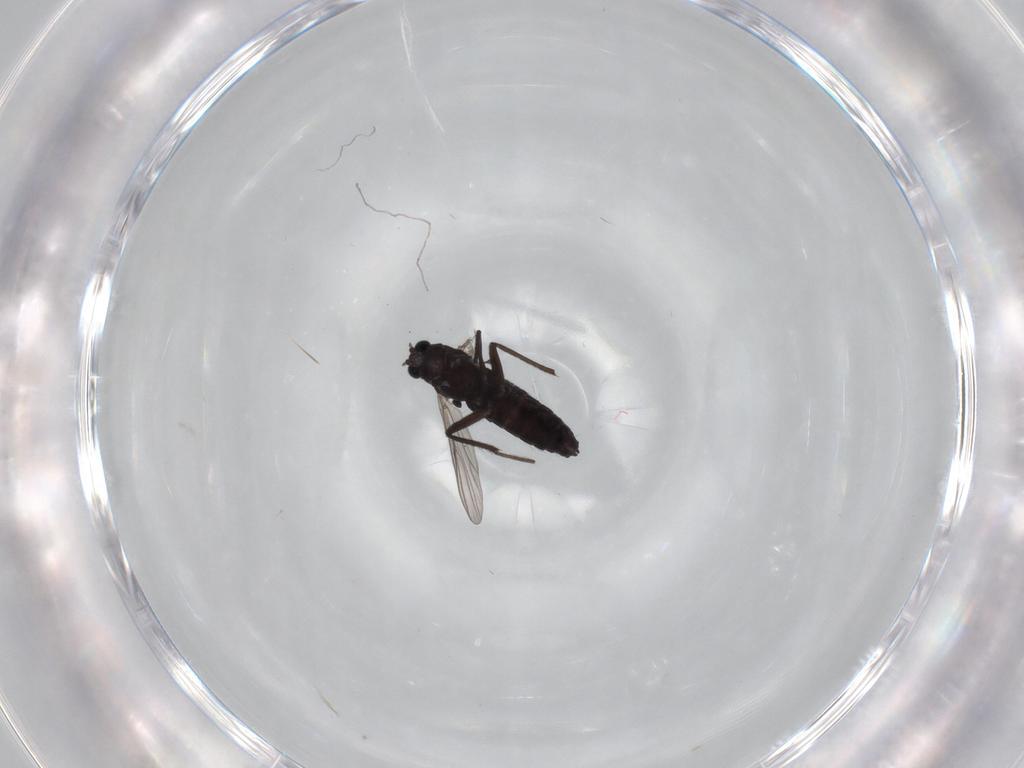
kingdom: Animalia
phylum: Arthropoda
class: Insecta
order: Diptera
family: Chironomidae
